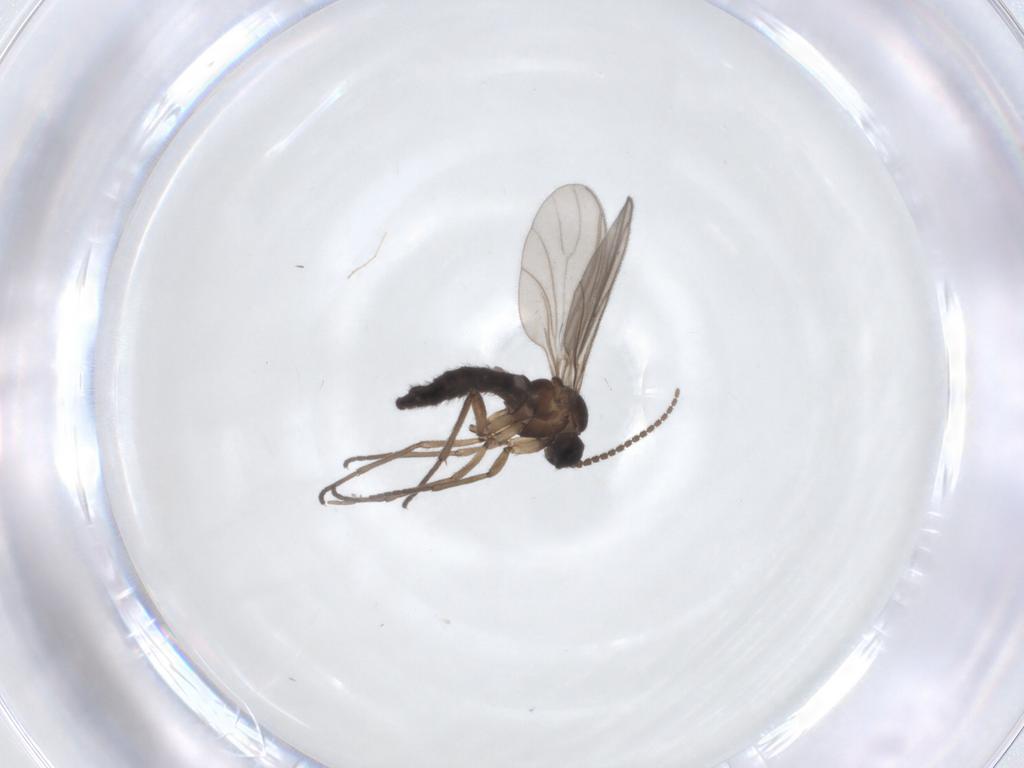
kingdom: Animalia
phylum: Arthropoda
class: Insecta
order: Diptera
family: Sciaridae
